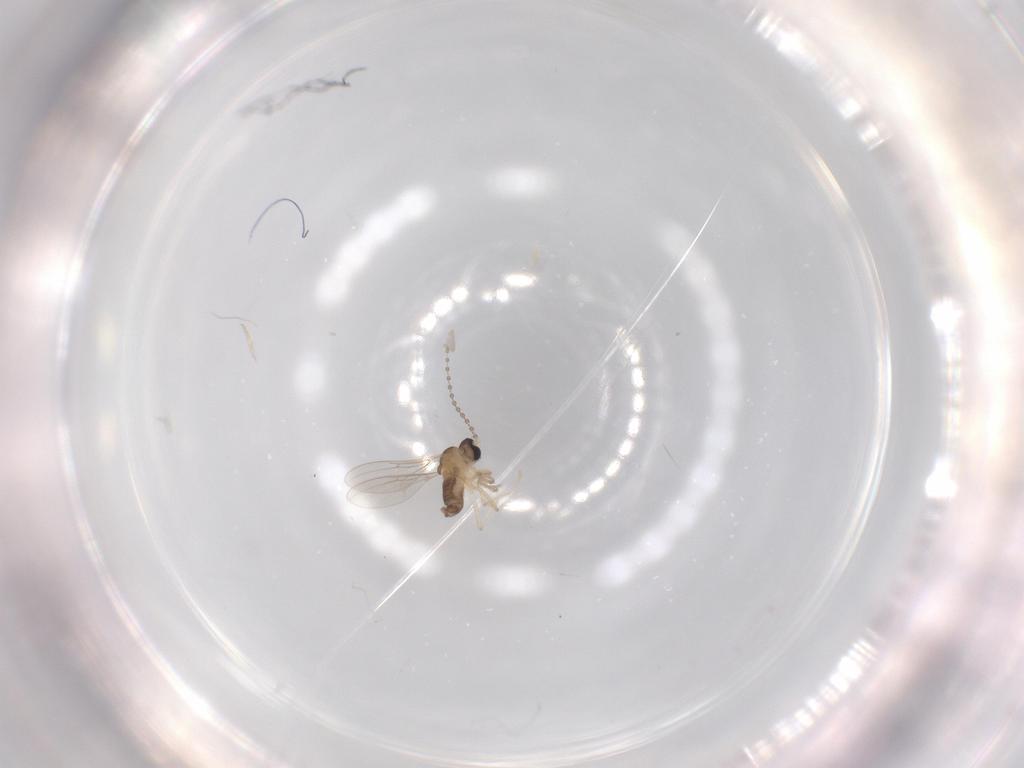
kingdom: Animalia
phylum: Arthropoda
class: Insecta
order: Diptera
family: Cecidomyiidae
